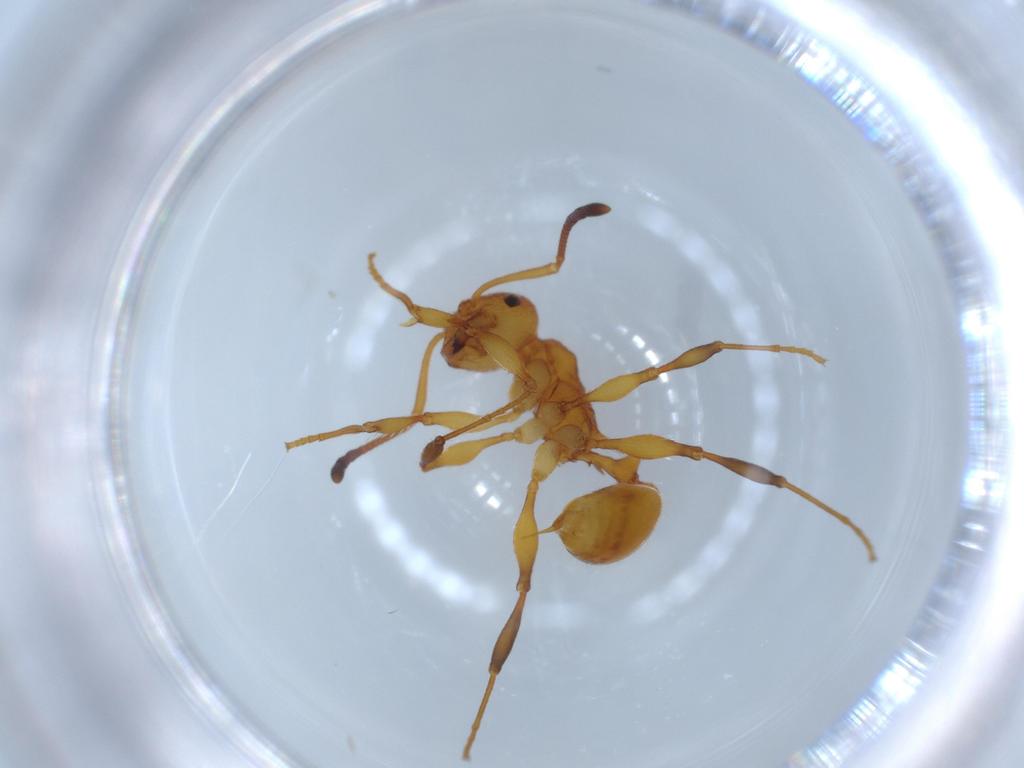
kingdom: Animalia
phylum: Arthropoda
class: Insecta
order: Hymenoptera
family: Formicidae
